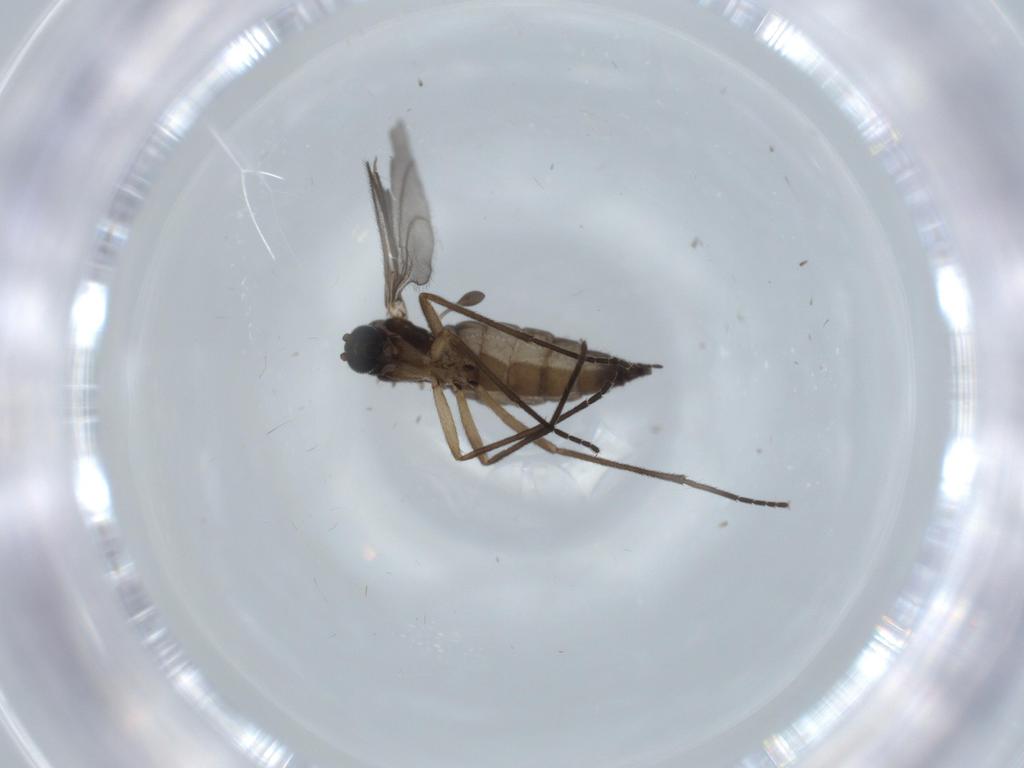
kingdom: Animalia
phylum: Arthropoda
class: Insecta
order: Diptera
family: Sciaridae
